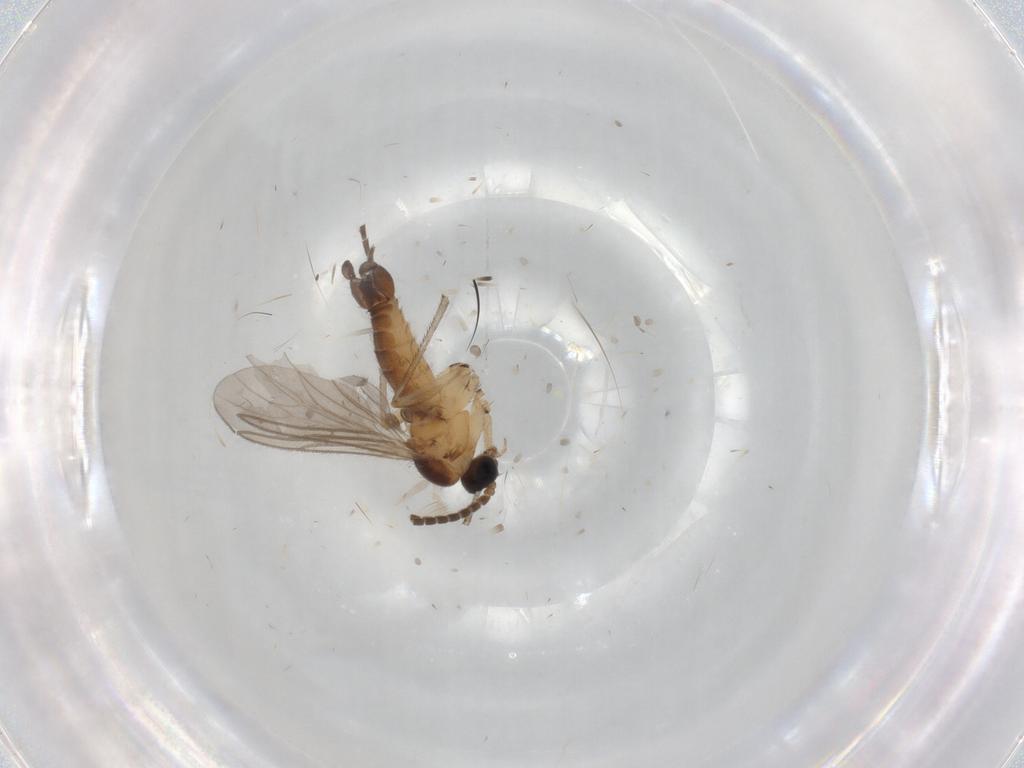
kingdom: Animalia
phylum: Arthropoda
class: Insecta
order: Diptera
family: Sciaridae
